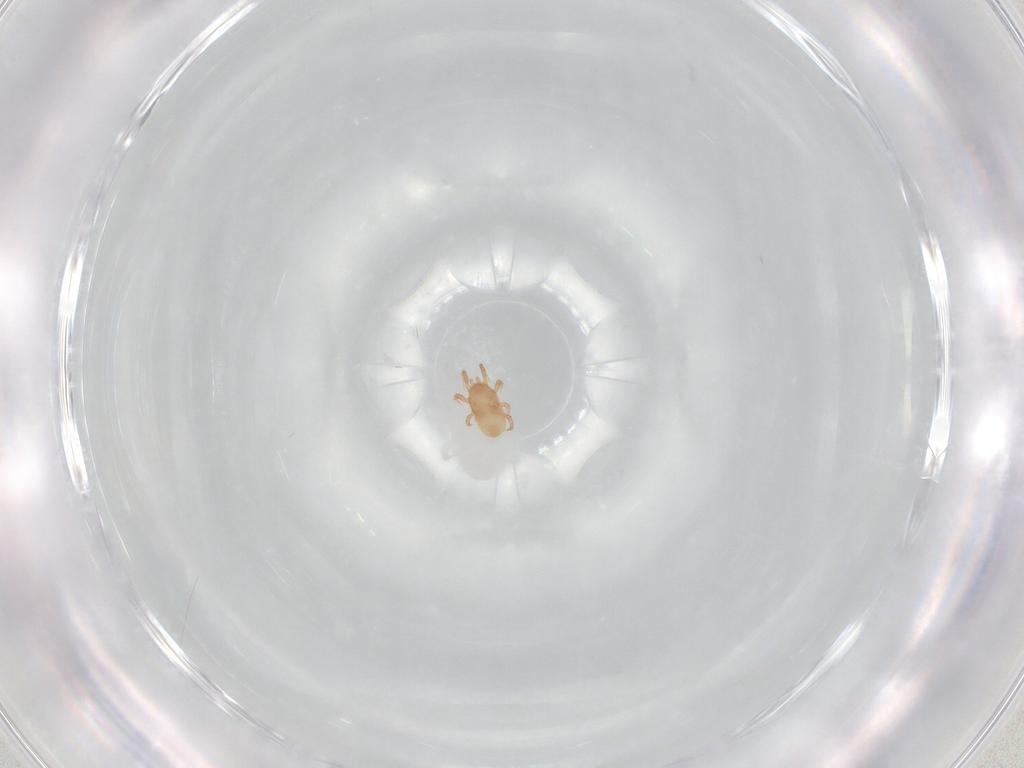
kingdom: Animalia
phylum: Arthropoda
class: Arachnida
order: Mesostigmata
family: Ascidae
